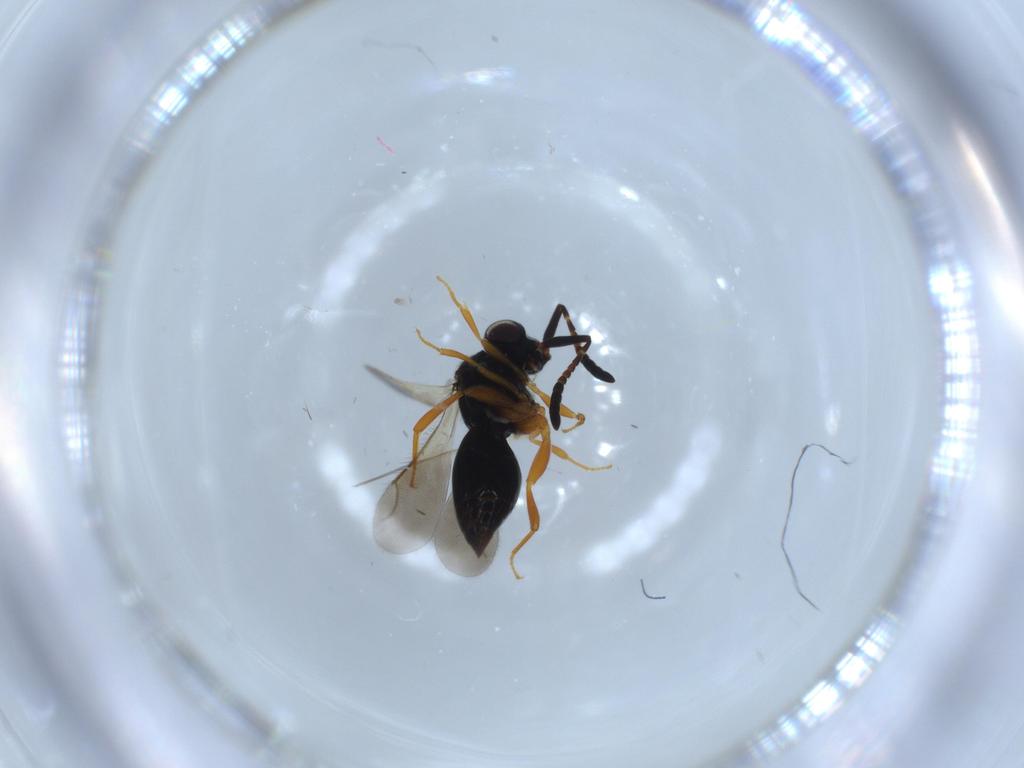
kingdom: Animalia
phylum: Arthropoda
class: Insecta
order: Hymenoptera
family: Ceraphronidae
